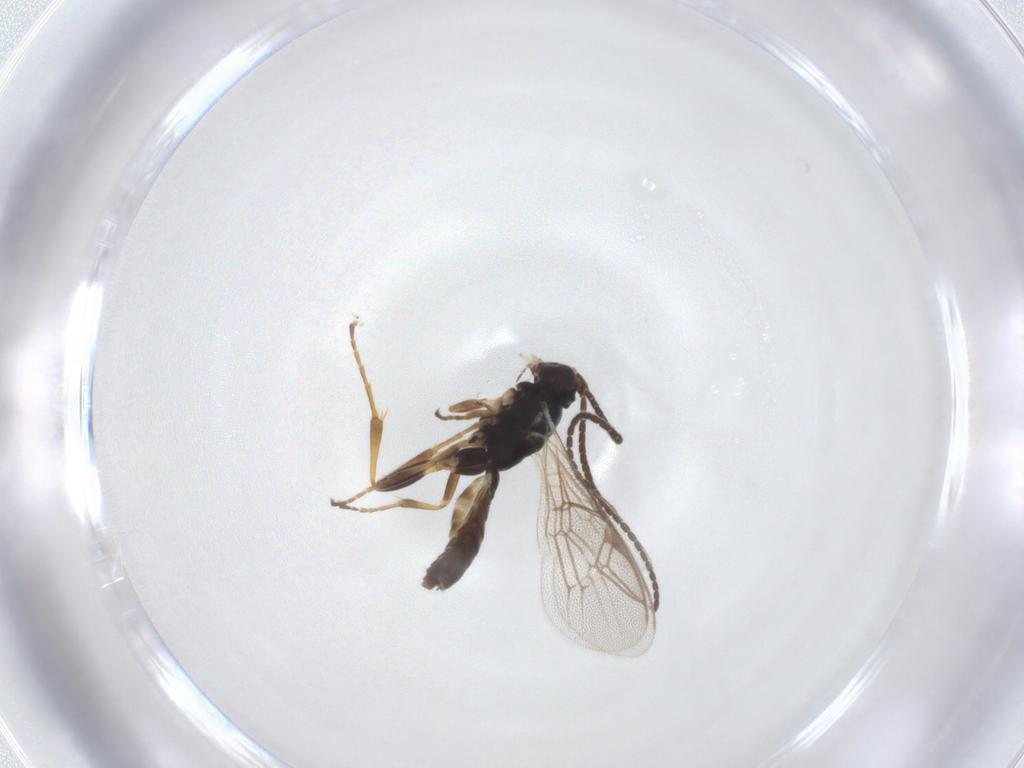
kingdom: Animalia
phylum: Arthropoda
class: Insecta
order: Hymenoptera
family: Ichneumonidae
